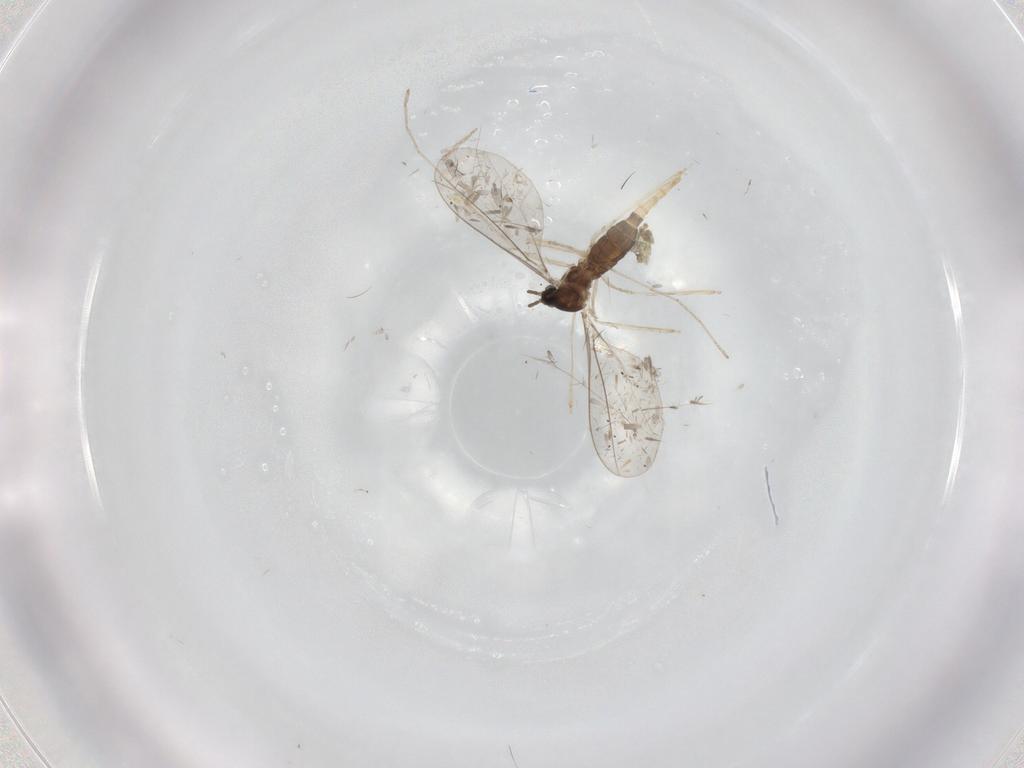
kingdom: Animalia
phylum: Arthropoda
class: Insecta
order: Diptera
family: Cecidomyiidae
